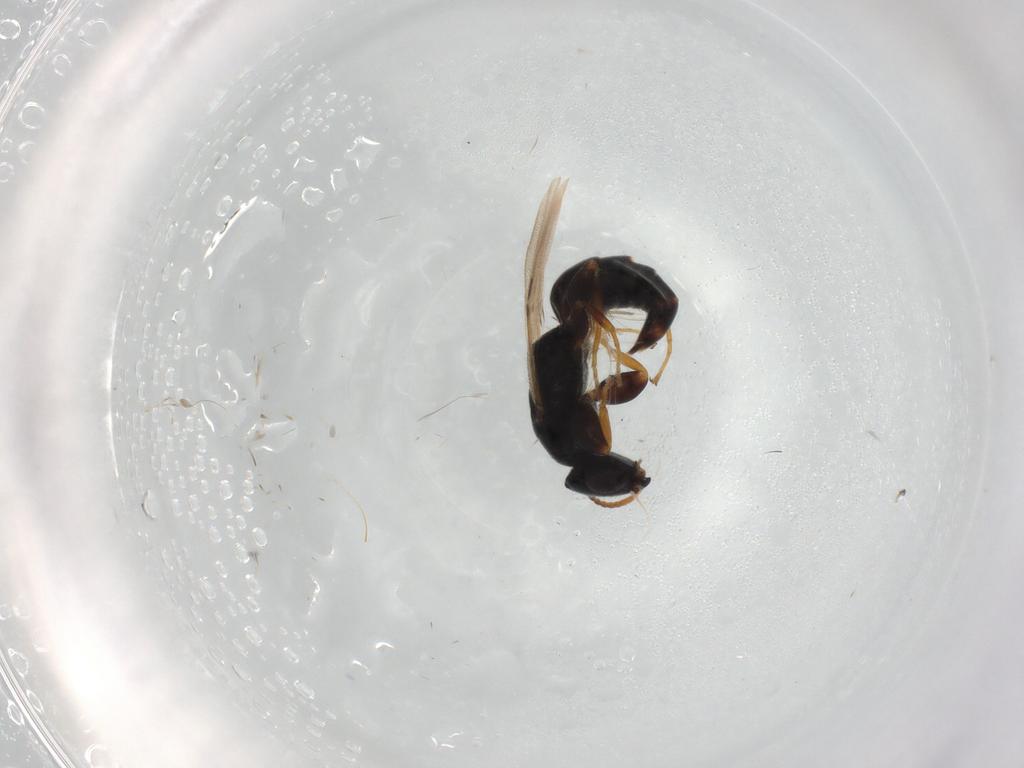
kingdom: Animalia
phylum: Arthropoda
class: Insecta
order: Hymenoptera
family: Bethylidae
